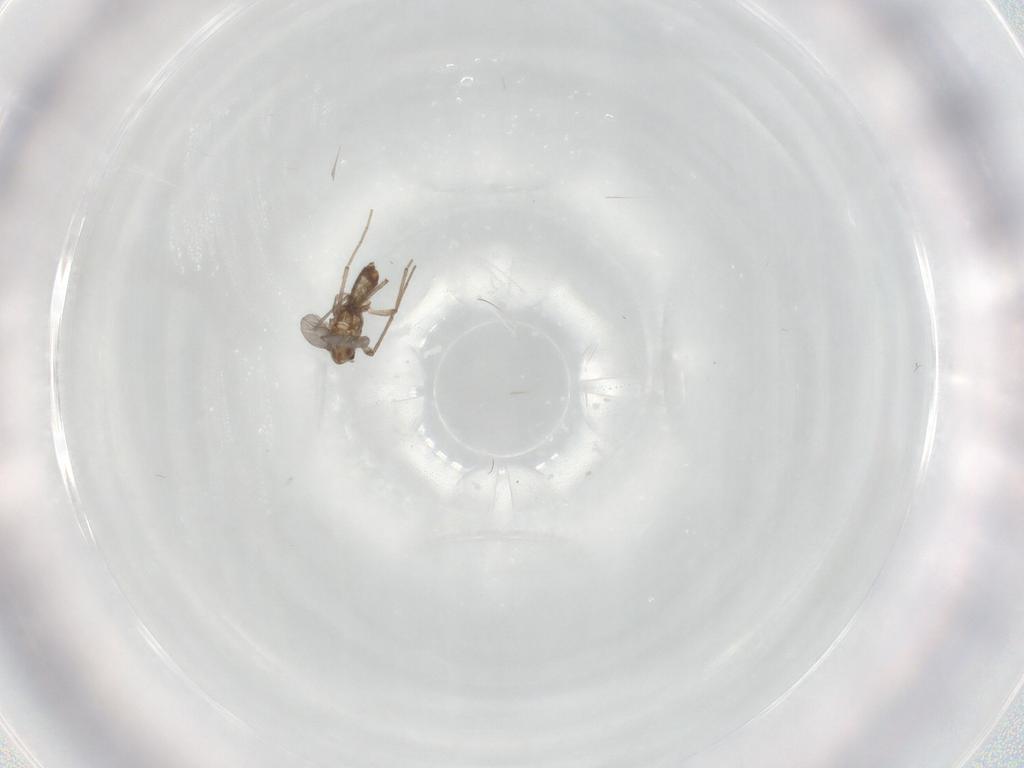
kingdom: Animalia
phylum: Arthropoda
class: Insecta
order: Diptera
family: Chironomidae
